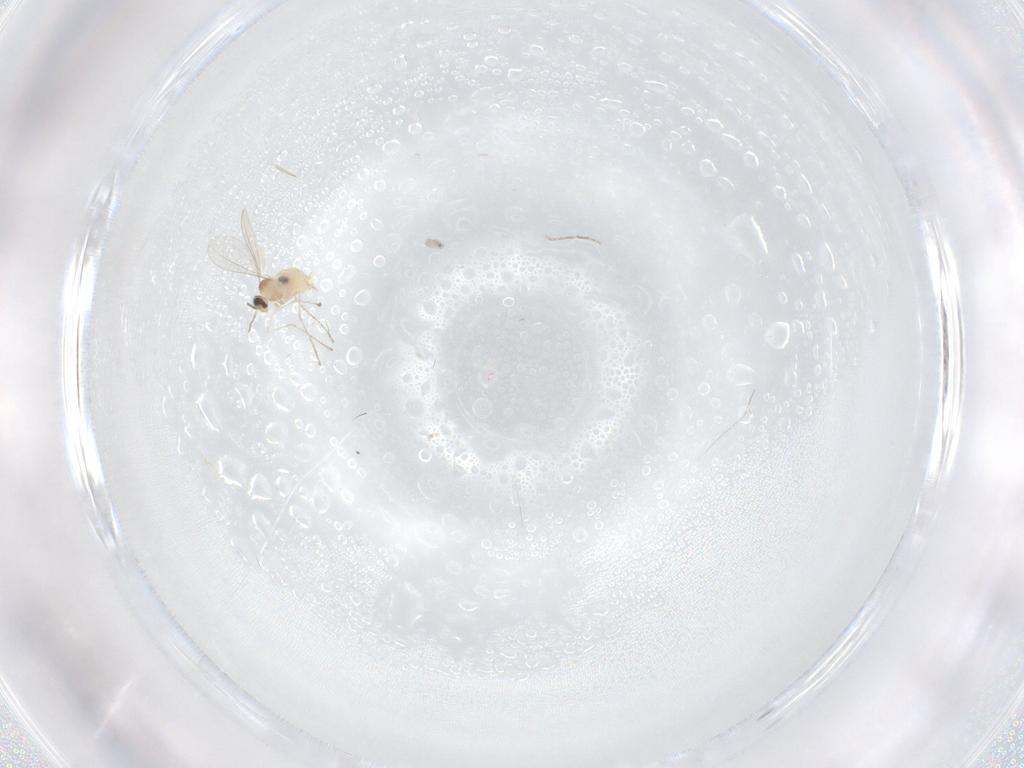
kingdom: Animalia
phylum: Arthropoda
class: Insecta
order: Diptera
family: Cecidomyiidae
